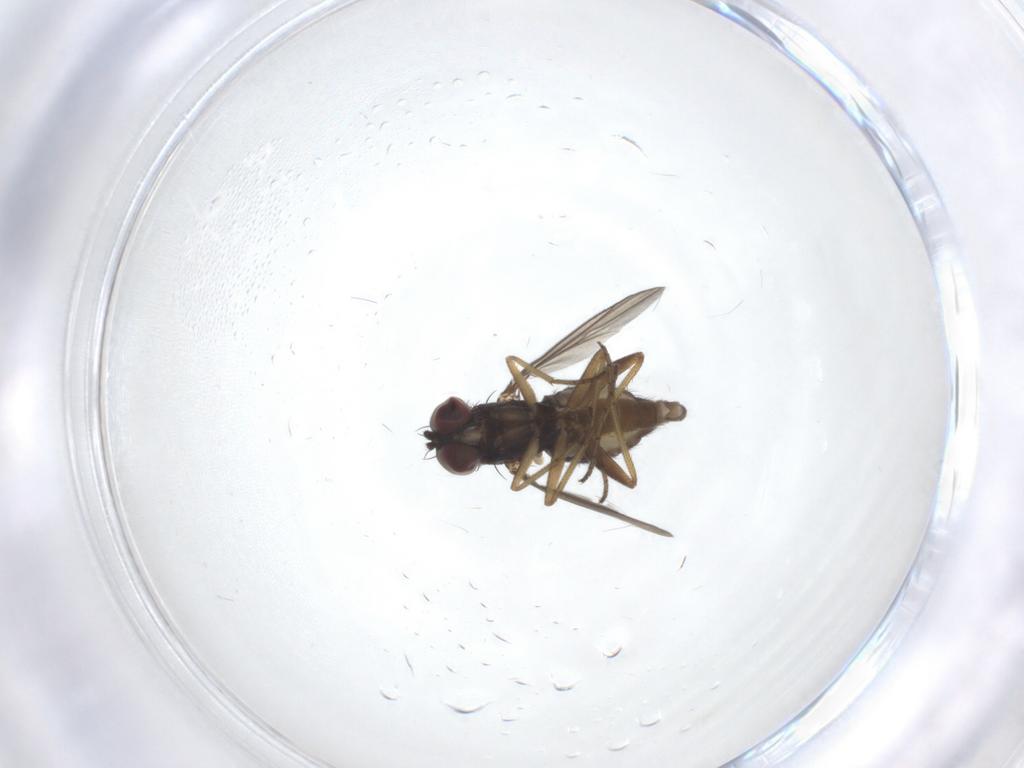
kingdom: Animalia
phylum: Arthropoda
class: Insecta
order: Diptera
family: Dolichopodidae
